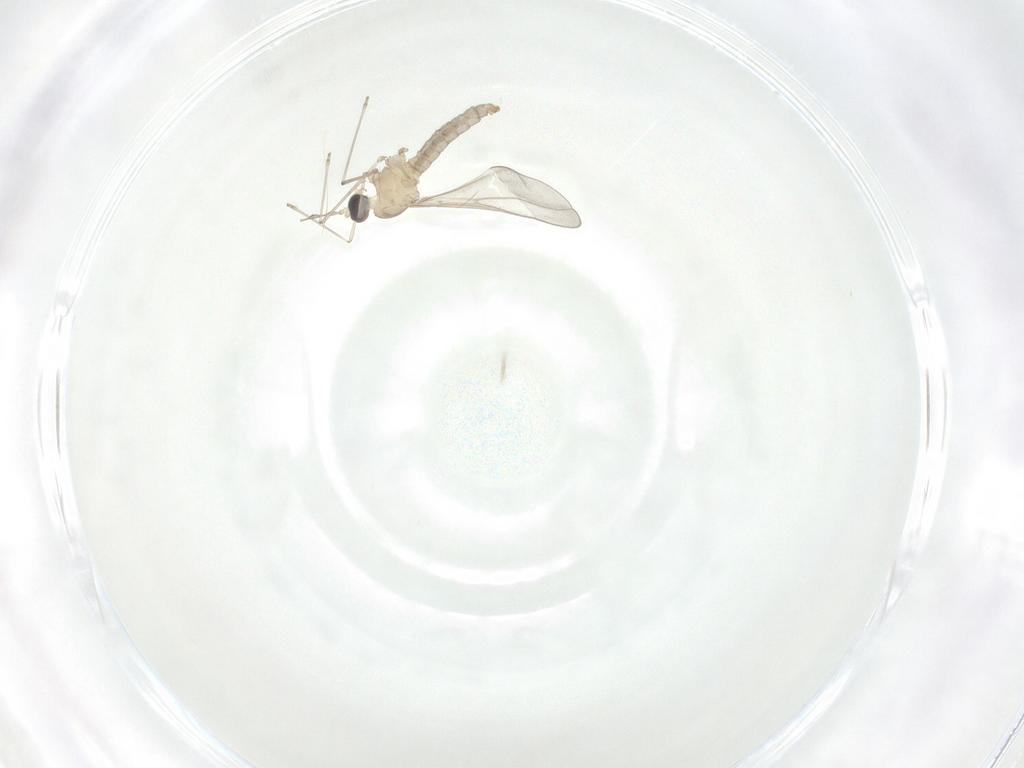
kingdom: Animalia
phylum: Arthropoda
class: Insecta
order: Diptera
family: Cecidomyiidae
